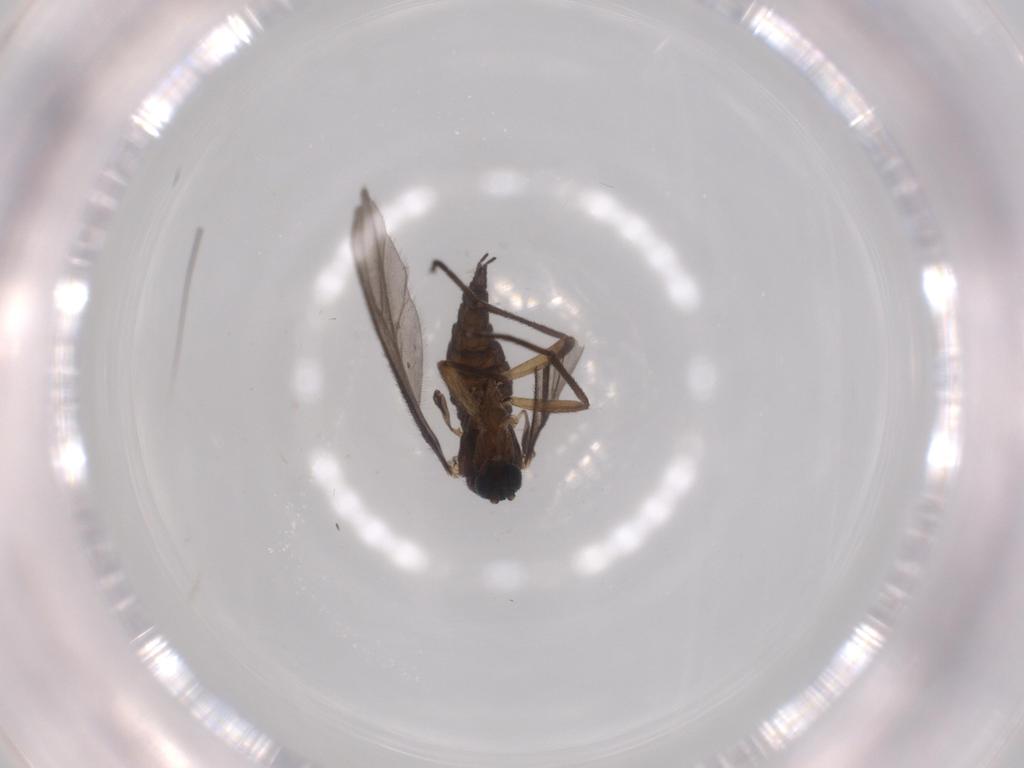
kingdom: Animalia
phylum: Arthropoda
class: Insecta
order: Diptera
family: Sciaridae
